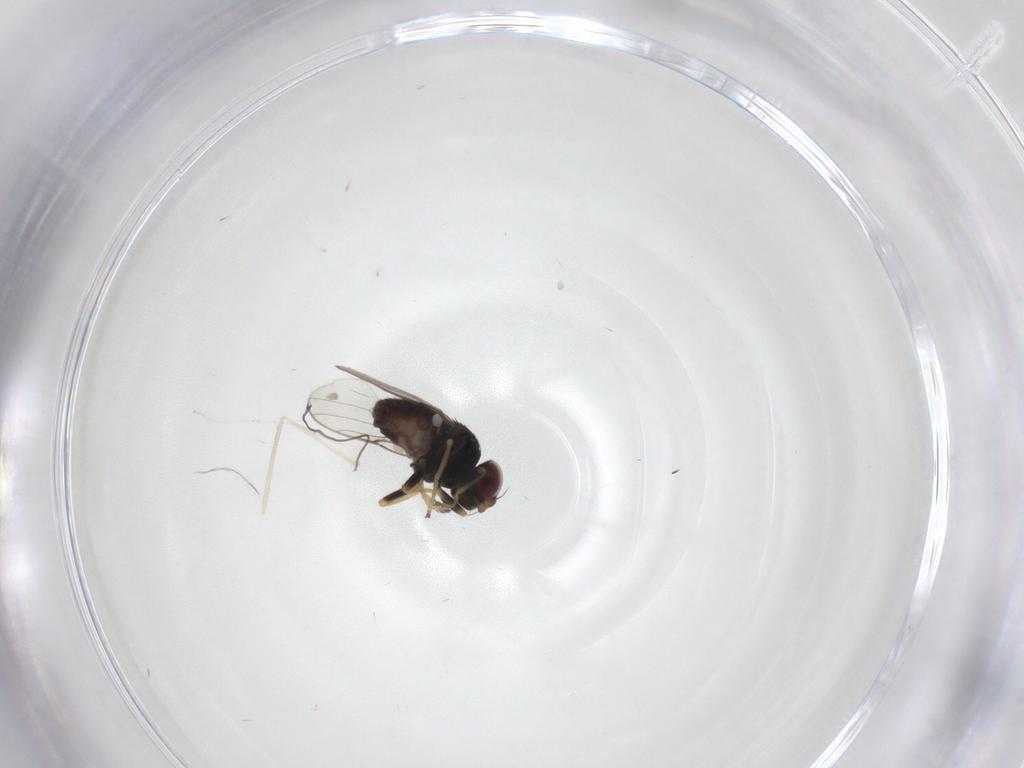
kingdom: Animalia
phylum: Arthropoda
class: Insecta
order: Diptera
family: Chloropidae
